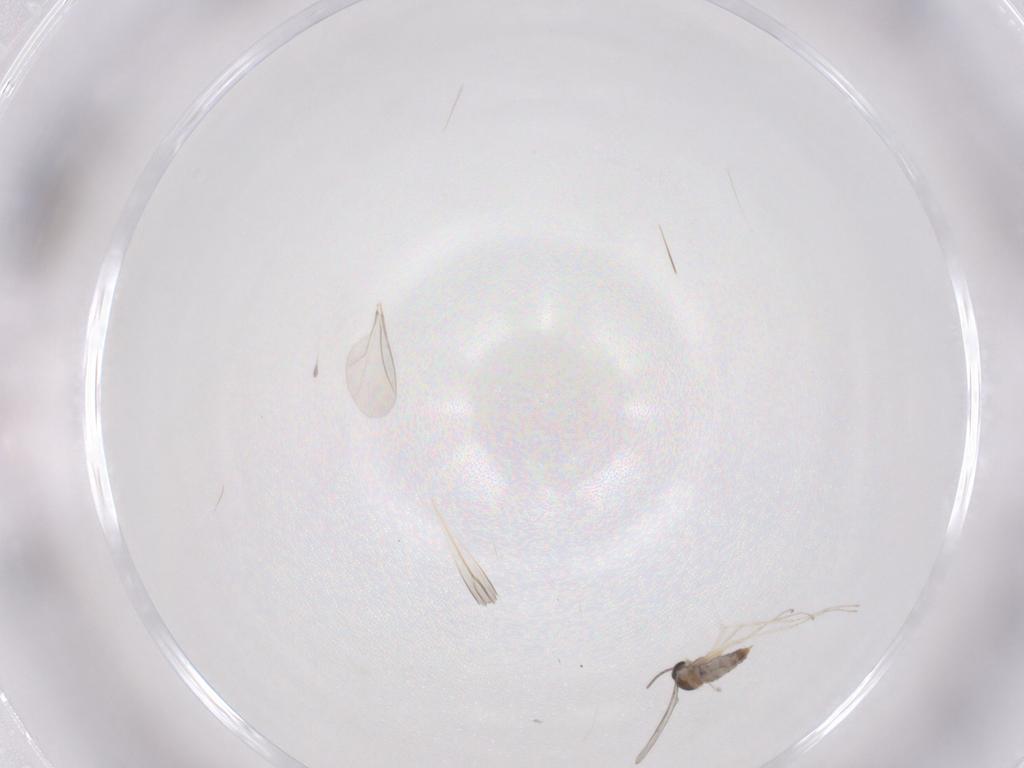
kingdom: Animalia
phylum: Arthropoda
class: Insecta
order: Diptera
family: Cecidomyiidae
